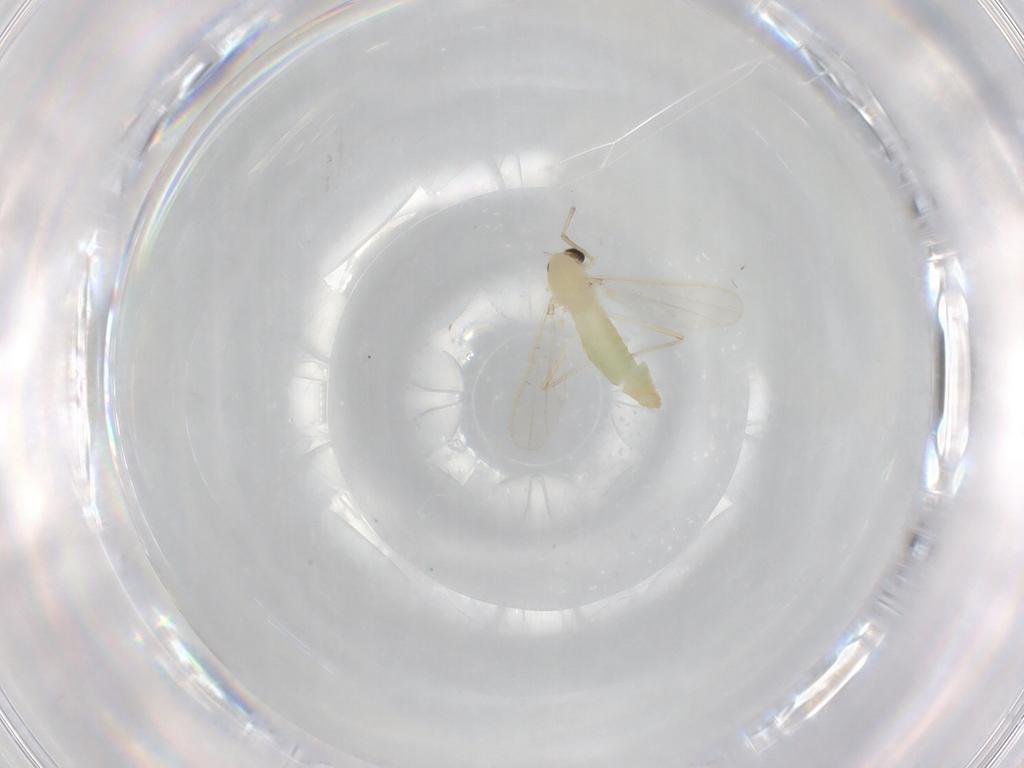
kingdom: Animalia
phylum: Arthropoda
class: Insecta
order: Diptera
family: Chironomidae
